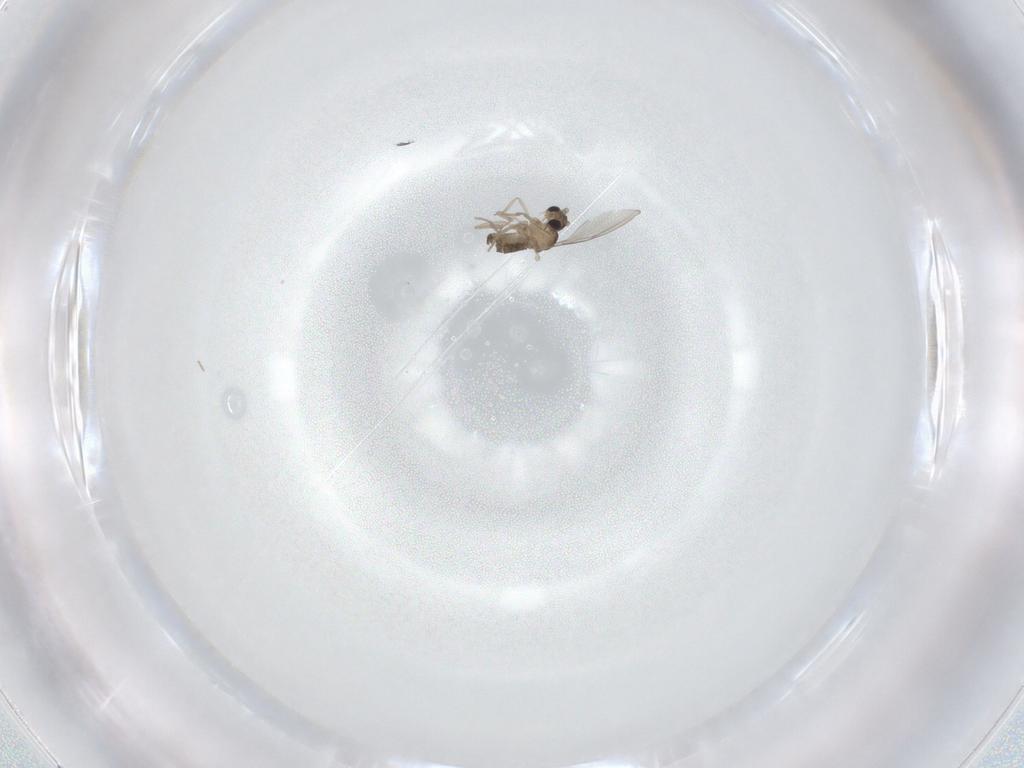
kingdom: Animalia
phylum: Arthropoda
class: Insecta
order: Diptera
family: Cecidomyiidae
